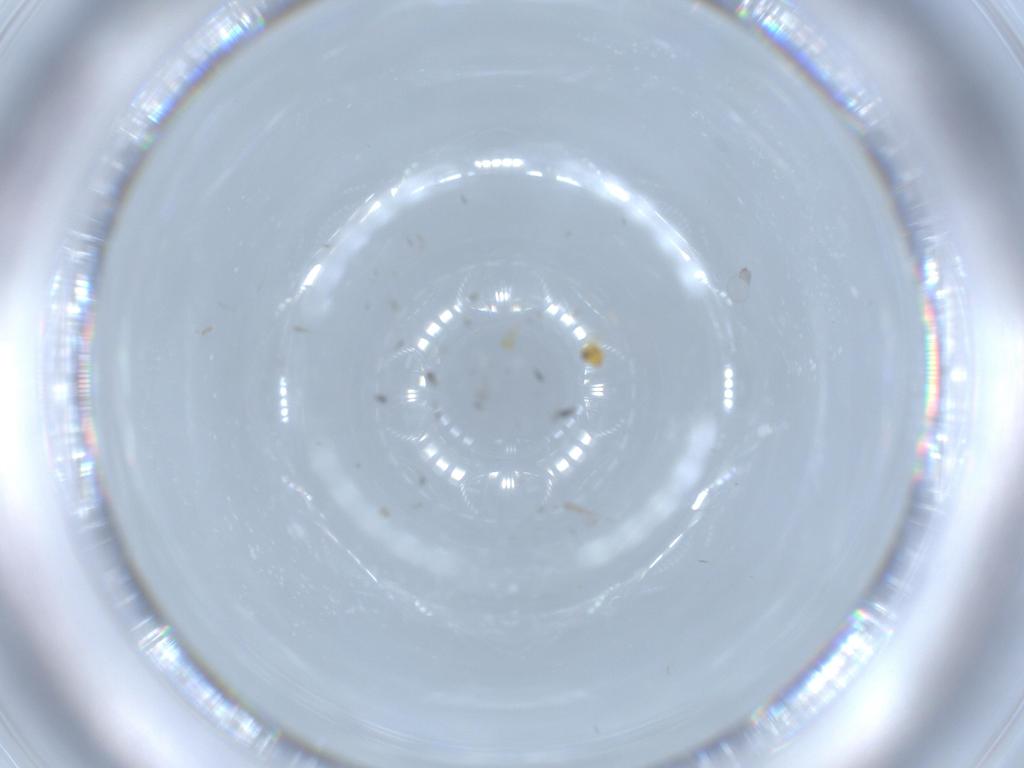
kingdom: Animalia
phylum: Arthropoda
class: Insecta
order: Hymenoptera
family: Trichogrammatidae
